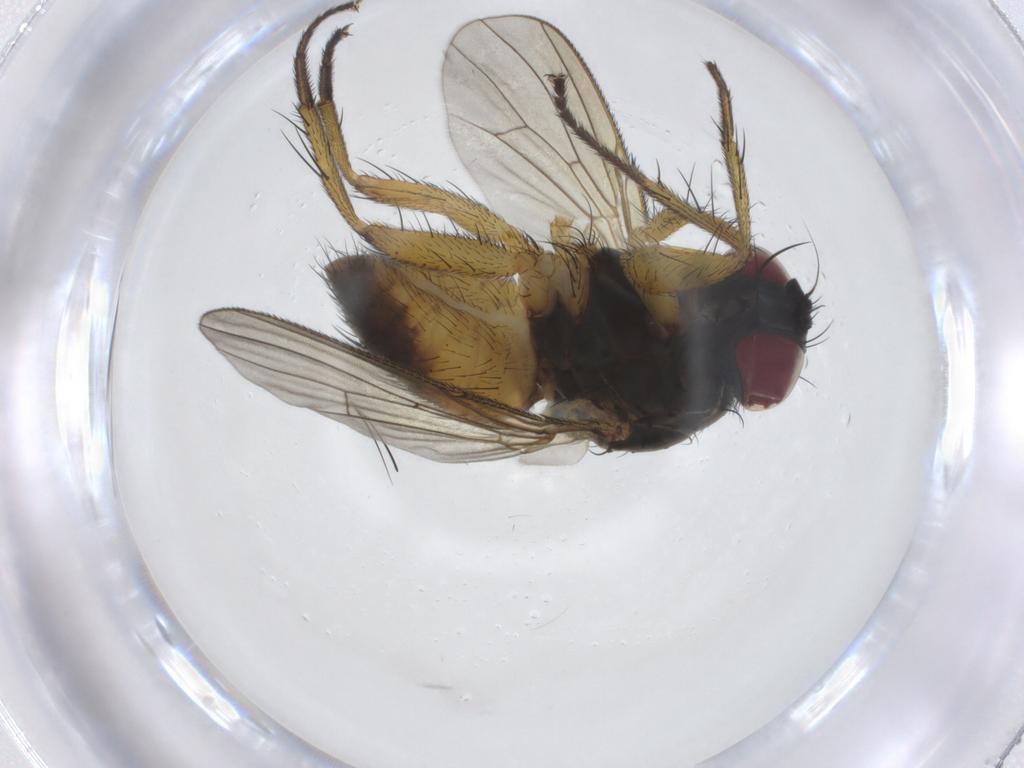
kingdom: Animalia
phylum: Arthropoda
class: Insecta
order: Diptera
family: Muscidae
